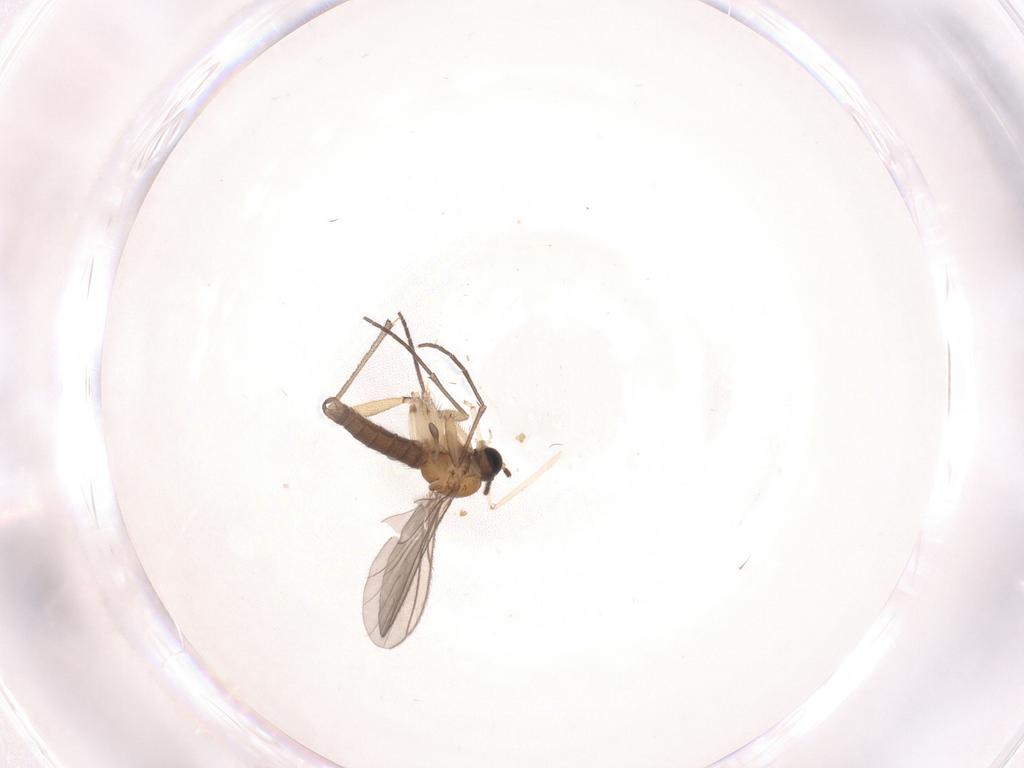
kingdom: Animalia
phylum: Arthropoda
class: Insecta
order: Diptera
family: Sciaridae
